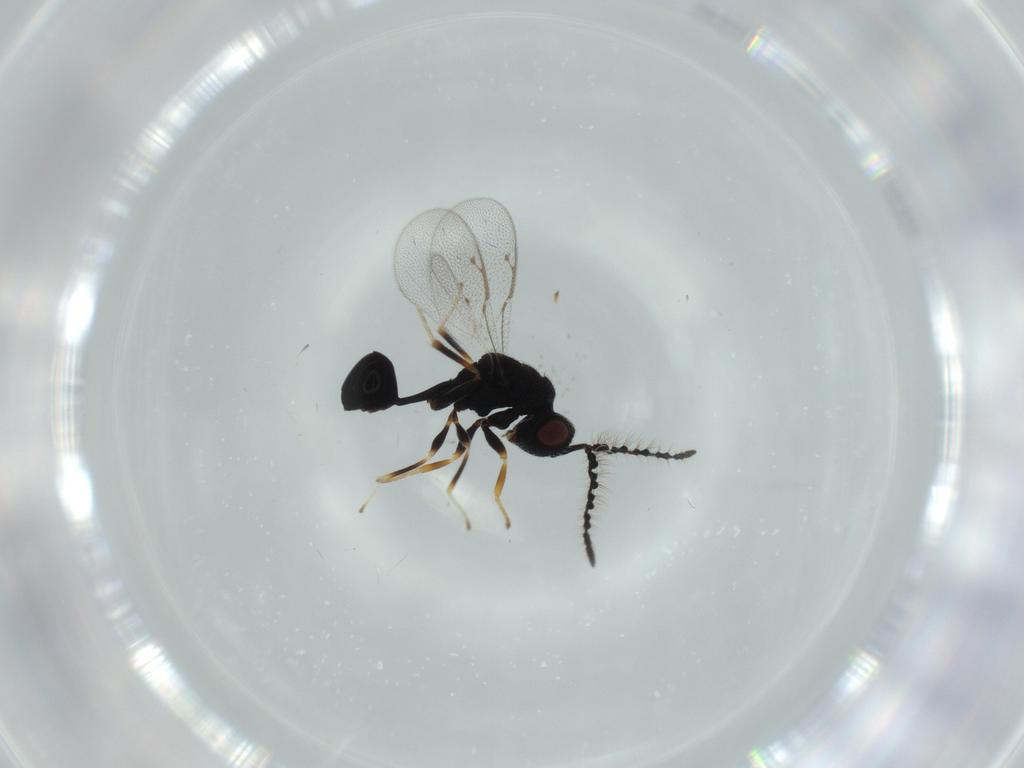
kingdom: Animalia
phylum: Arthropoda
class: Insecta
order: Hymenoptera
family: Eurytomidae
